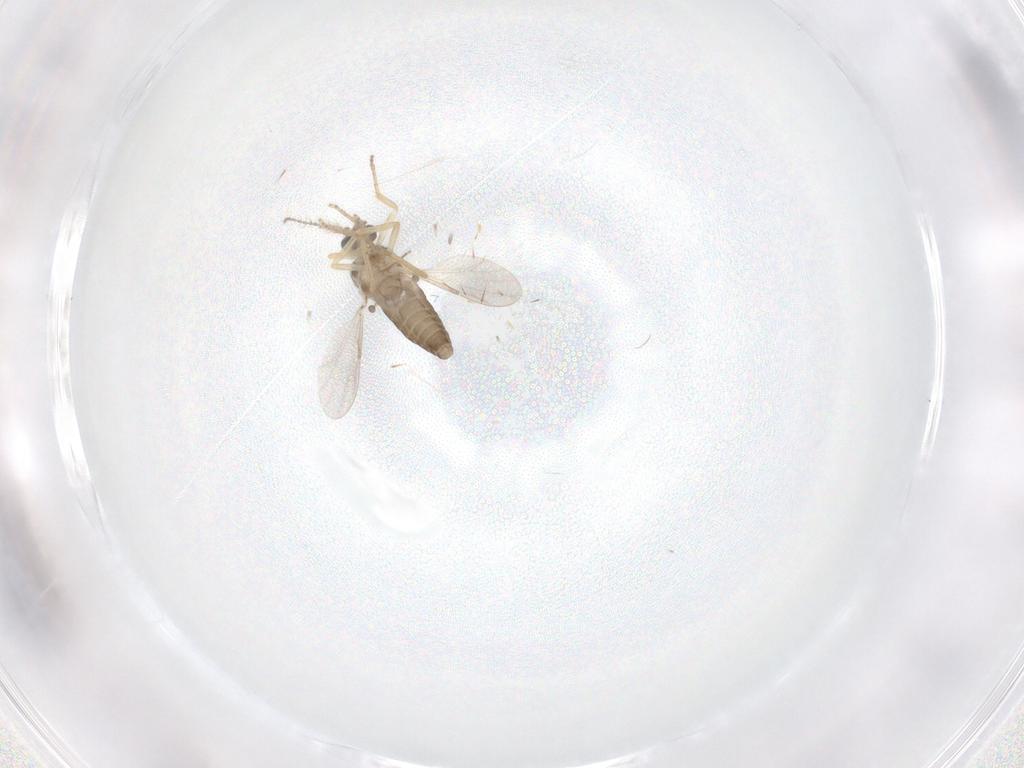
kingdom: Animalia
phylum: Arthropoda
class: Insecta
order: Diptera
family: Ceratopogonidae
